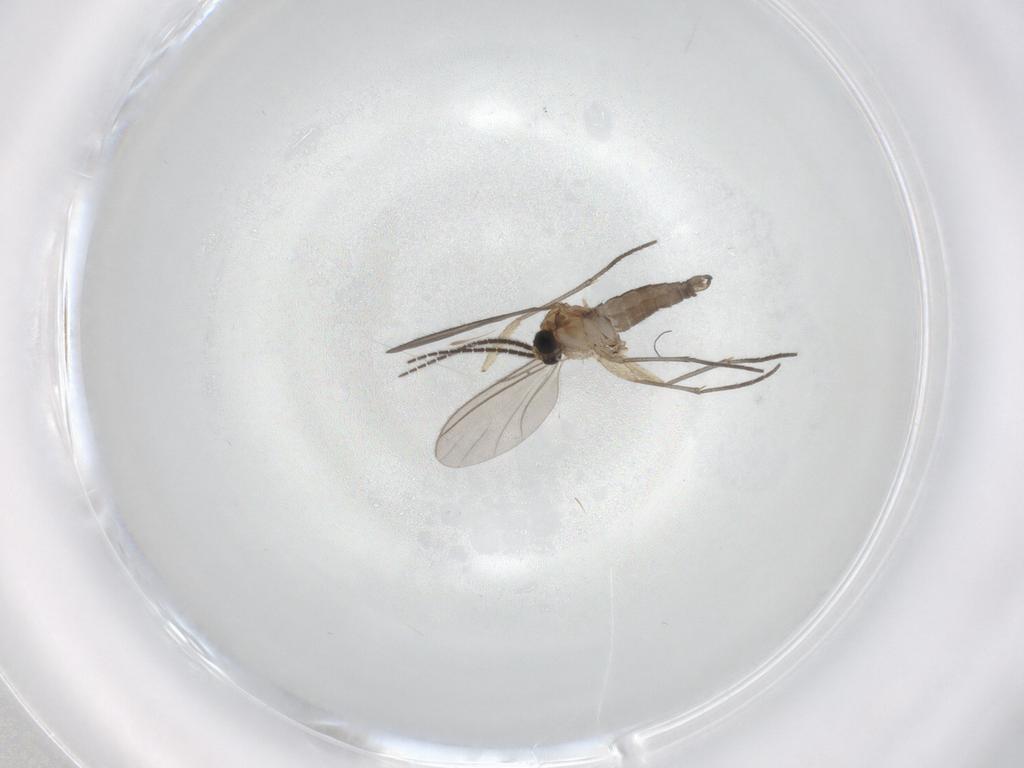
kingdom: Animalia
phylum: Arthropoda
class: Insecta
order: Diptera
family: Sciaridae
